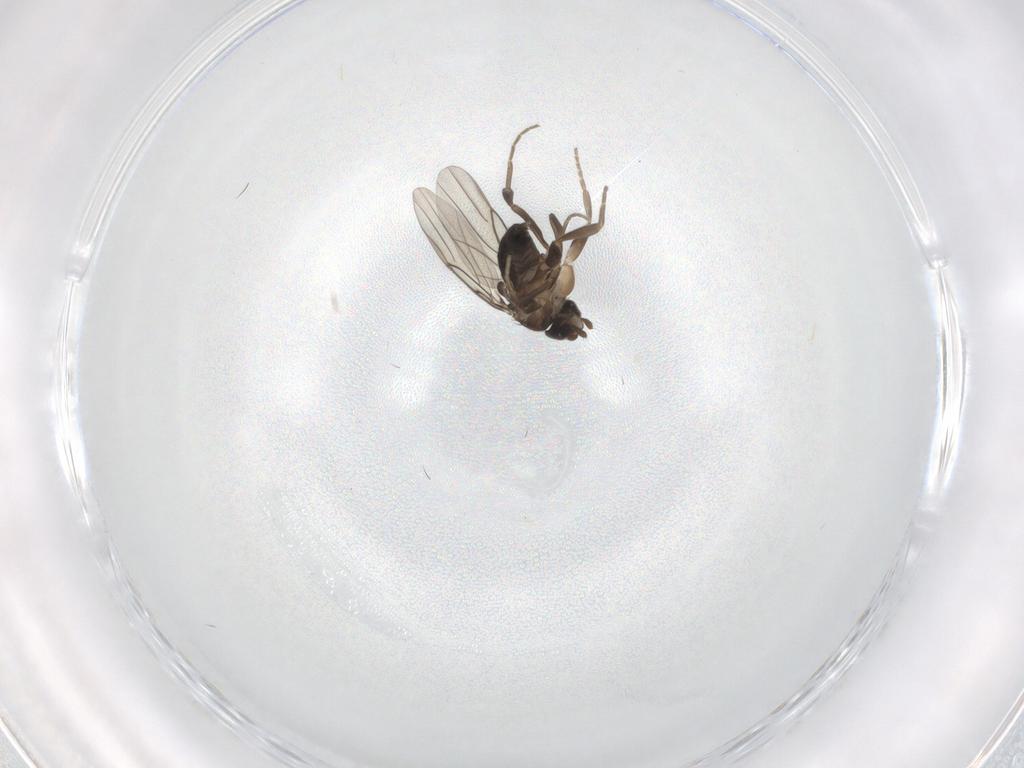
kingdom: Animalia
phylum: Arthropoda
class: Insecta
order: Diptera
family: Phoridae
